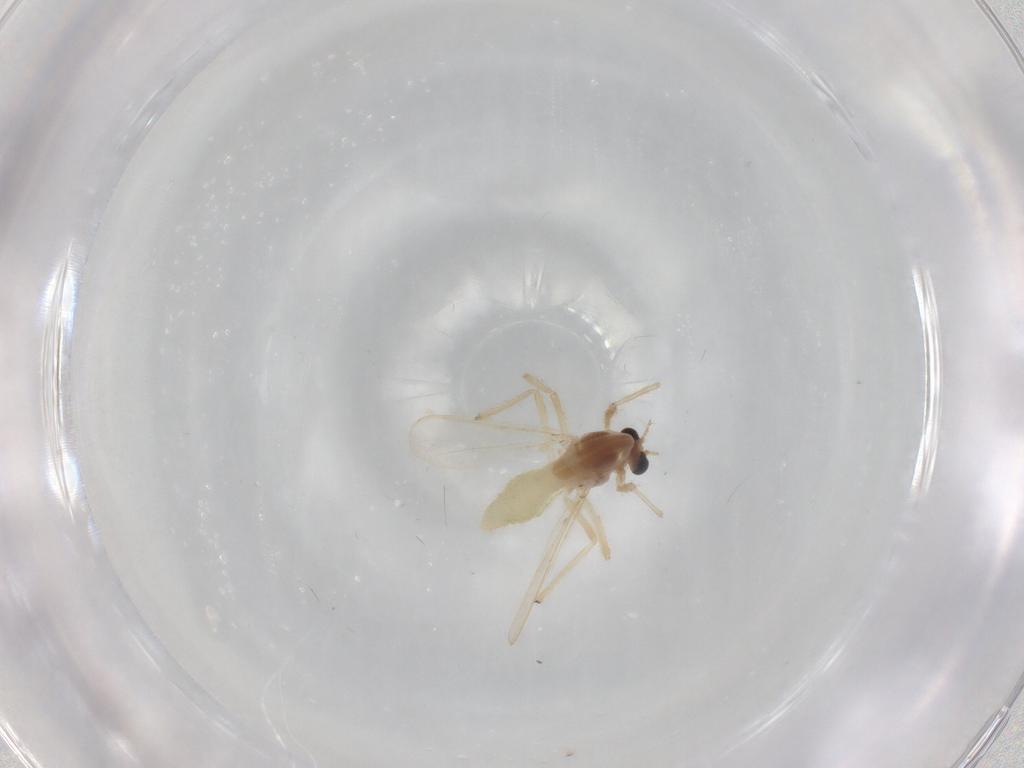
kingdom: Animalia
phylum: Arthropoda
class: Insecta
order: Diptera
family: Chironomidae
